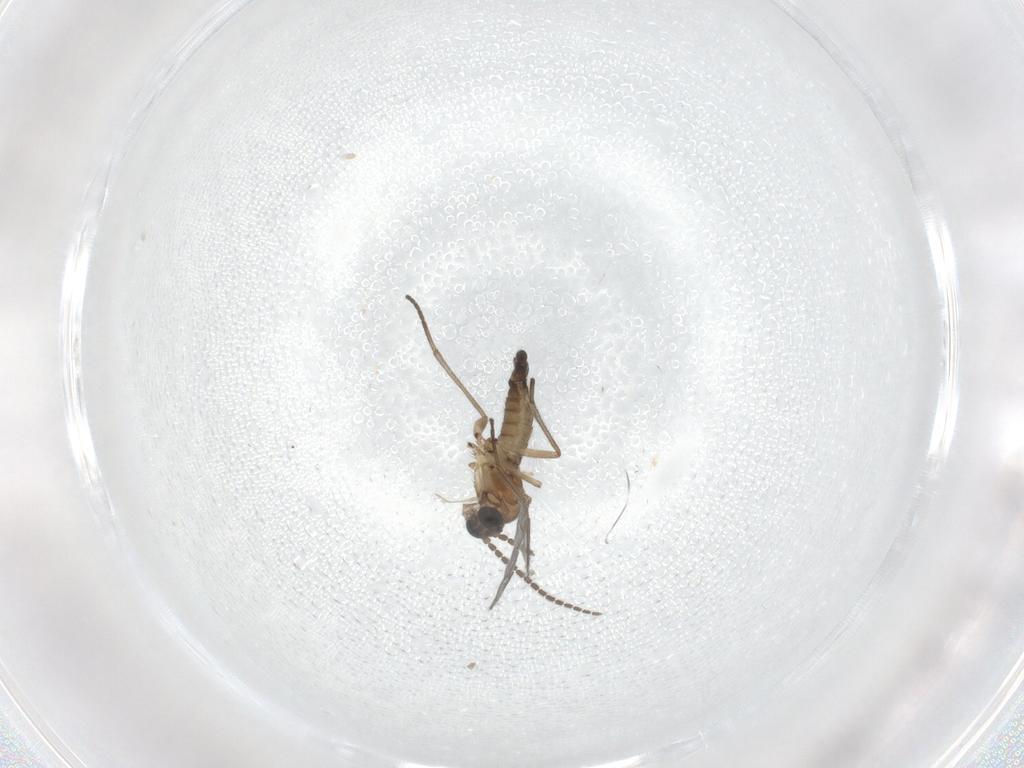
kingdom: Animalia
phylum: Arthropoda
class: Insecta
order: Diptera
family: Sciaridae
